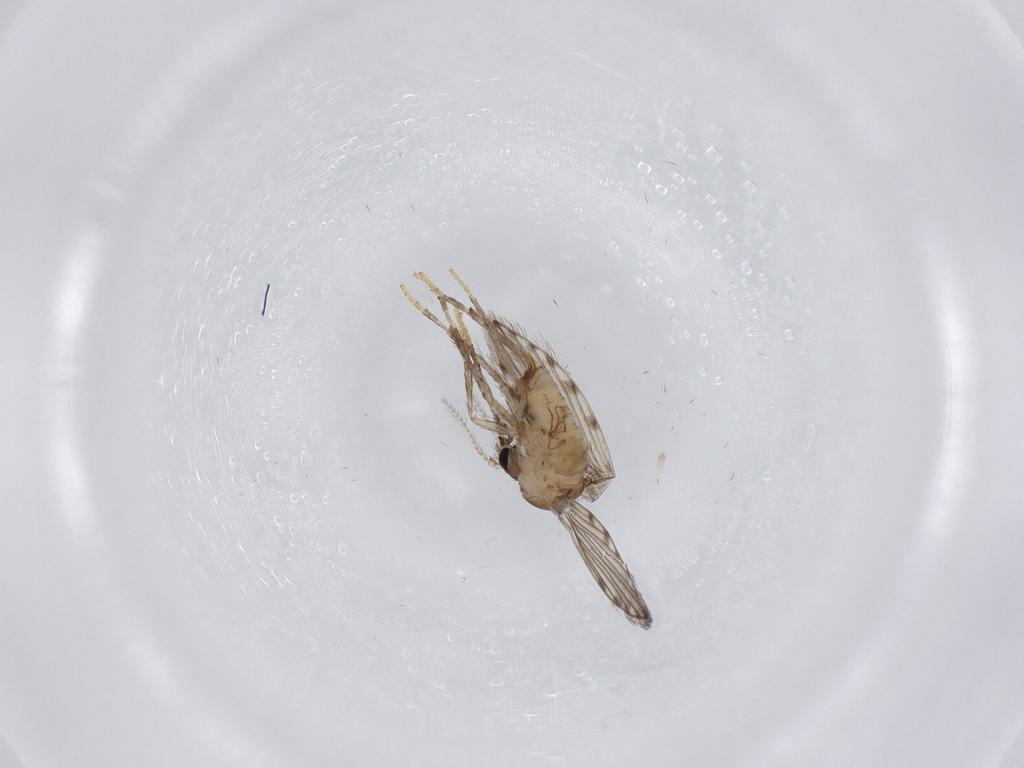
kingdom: Animalia
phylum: Arthropoda
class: Insecta
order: Diptera
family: Psychodidae
